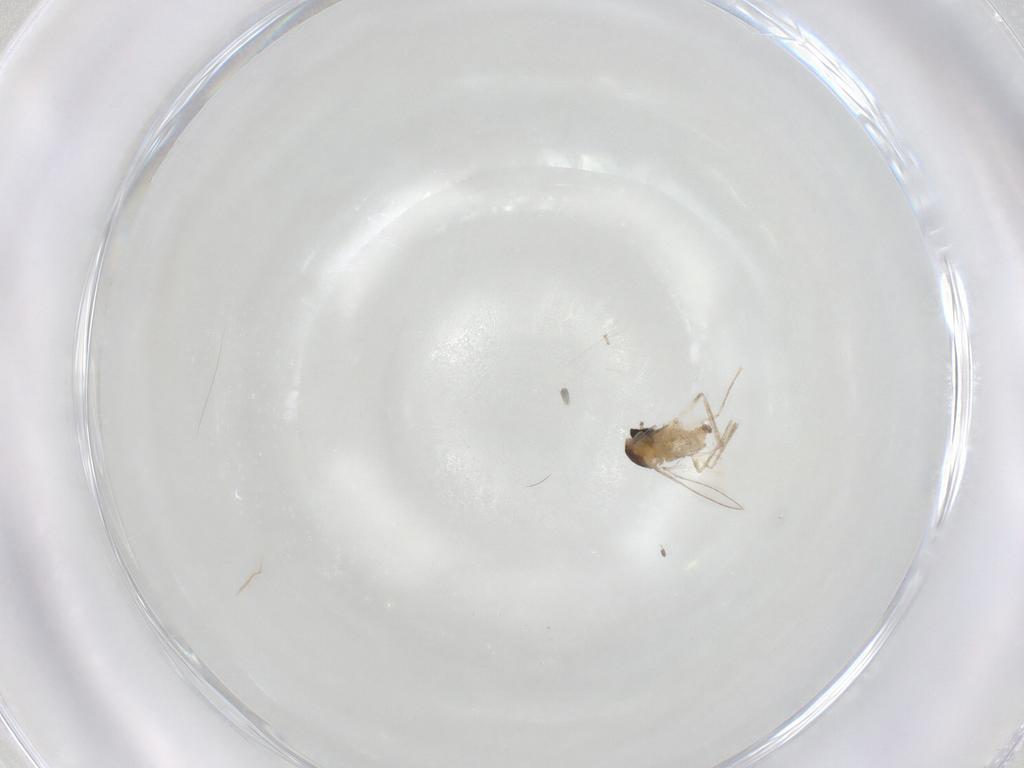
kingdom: Animalia
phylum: Arthropoda
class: Insecta
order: Diptera
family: Cecidomyiidae
